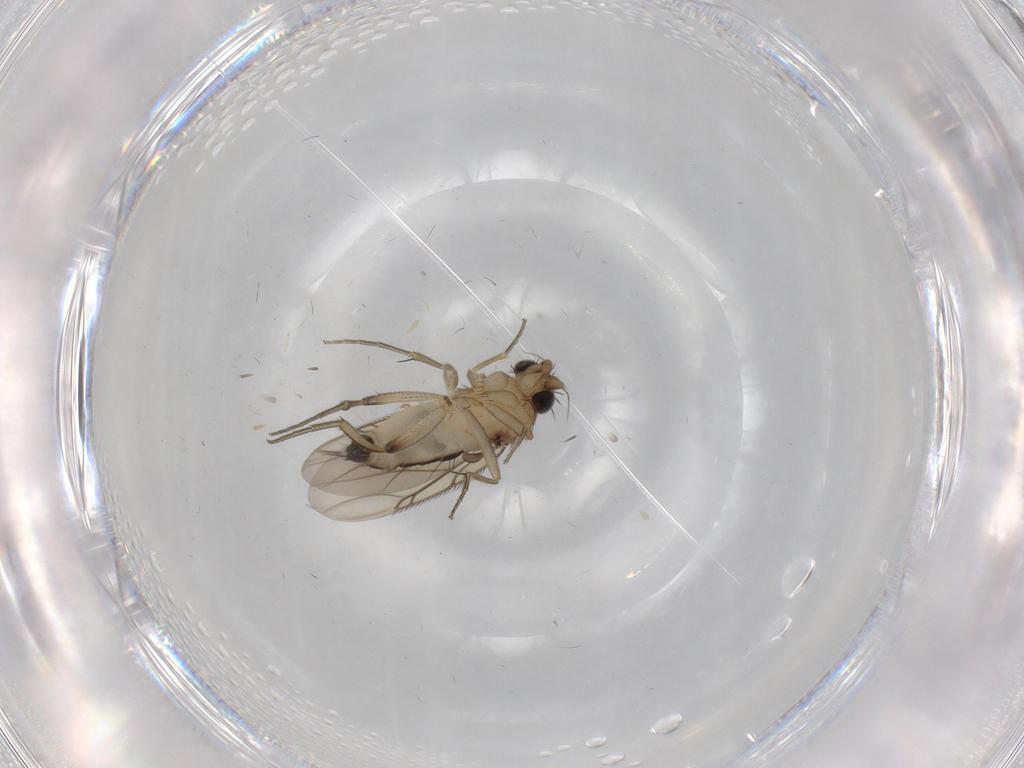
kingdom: Animalia
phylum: Arthropoda
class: Insecta
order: Diptera
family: Phoridae
